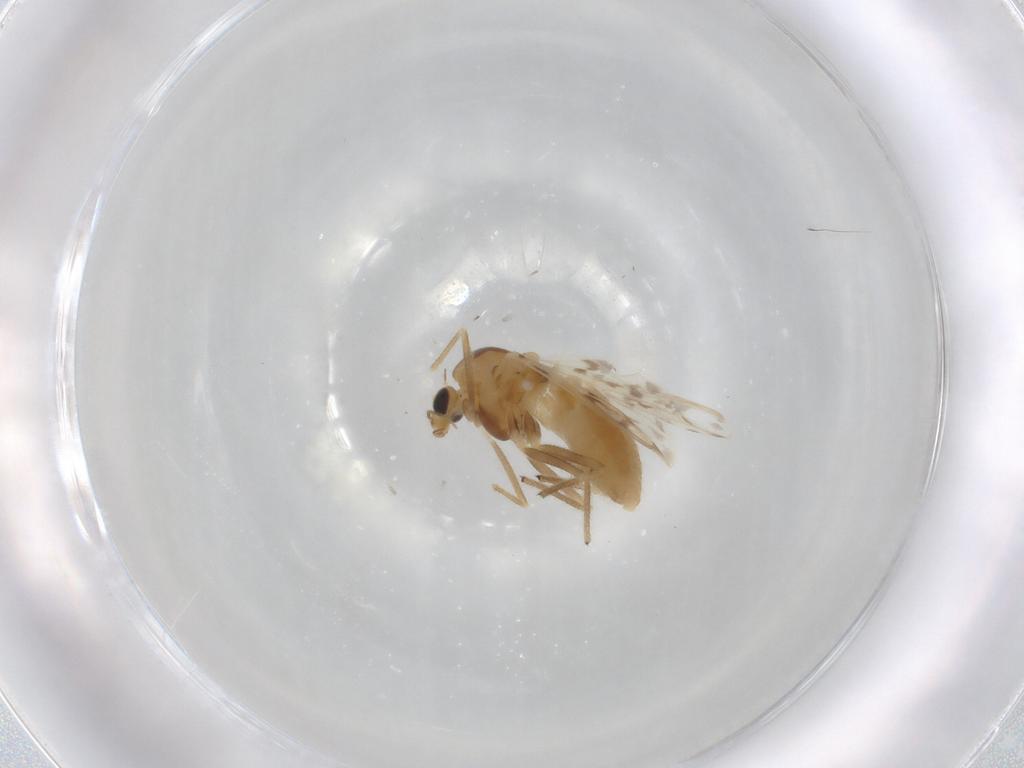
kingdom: Animalia
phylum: Arthropoda
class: Insecta
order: Diptera
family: Chironomidae
